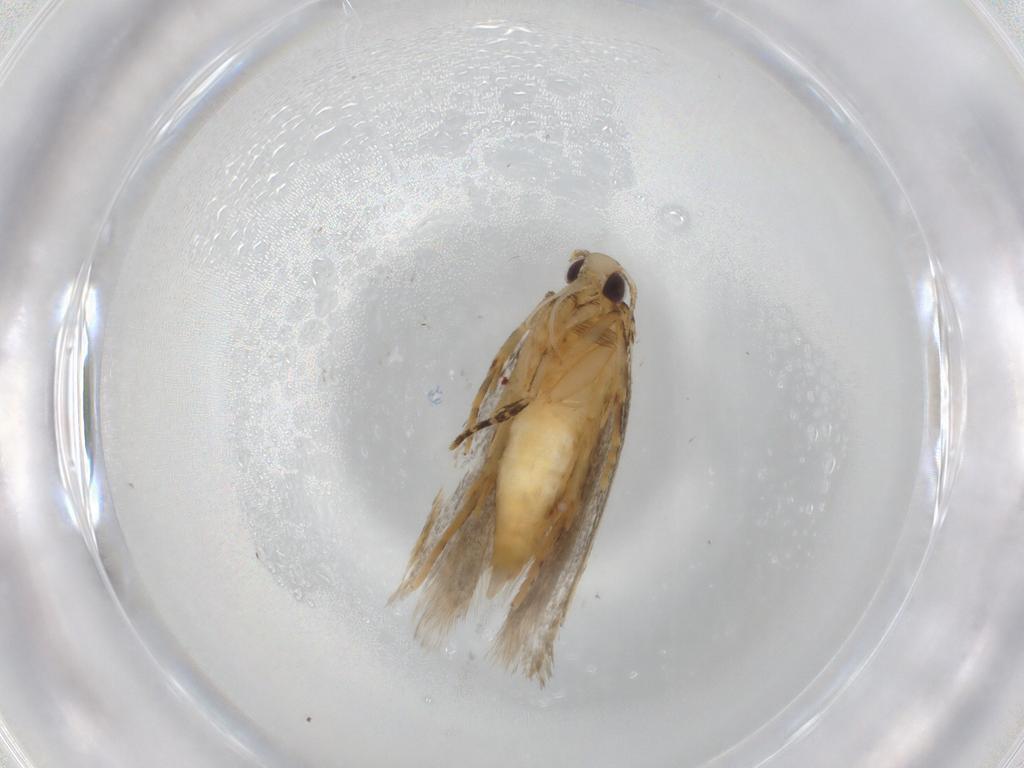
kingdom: Animalia
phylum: Arthropoda
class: Insecta
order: Lepidoptera
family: Autostichidae
